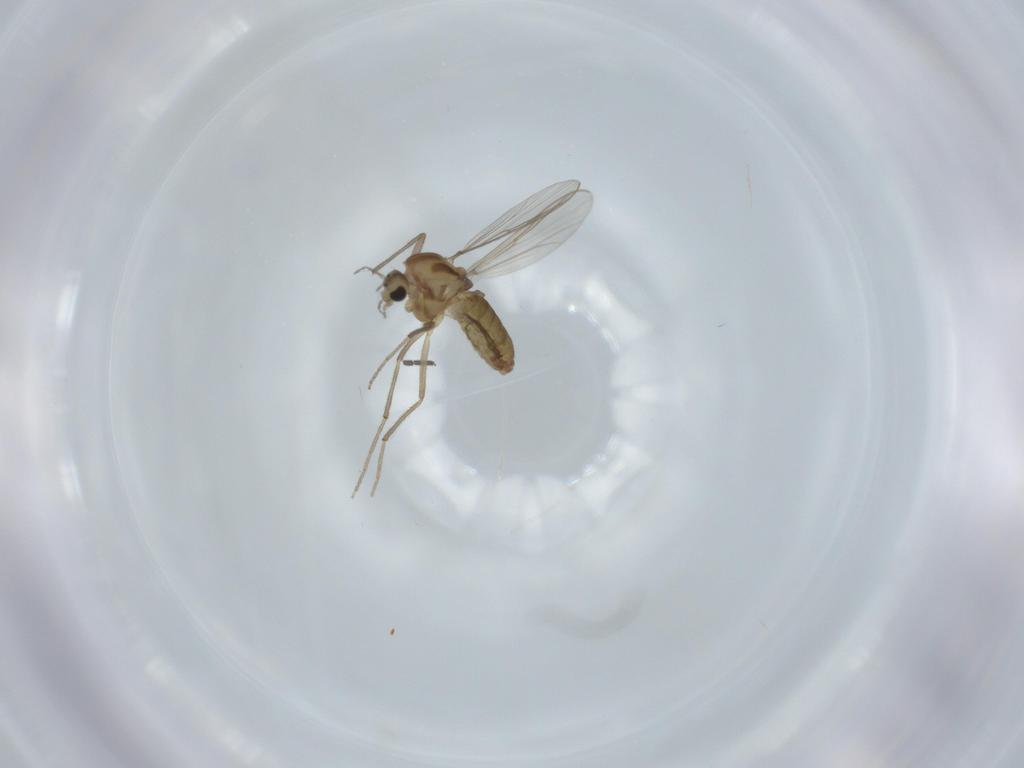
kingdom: Animalia
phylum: Arthropoda
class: Insecta
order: Diptera
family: Chironomidae
